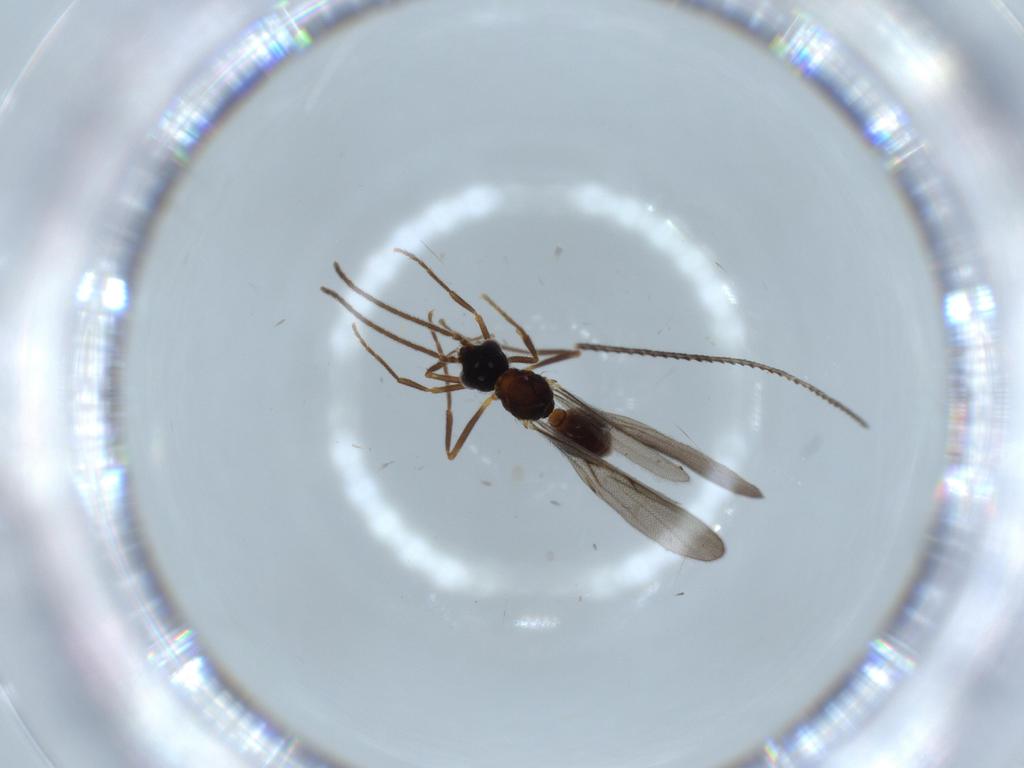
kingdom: Animalia
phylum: Arthropoda
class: Insecta
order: Hymenoptera
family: Formicidae
